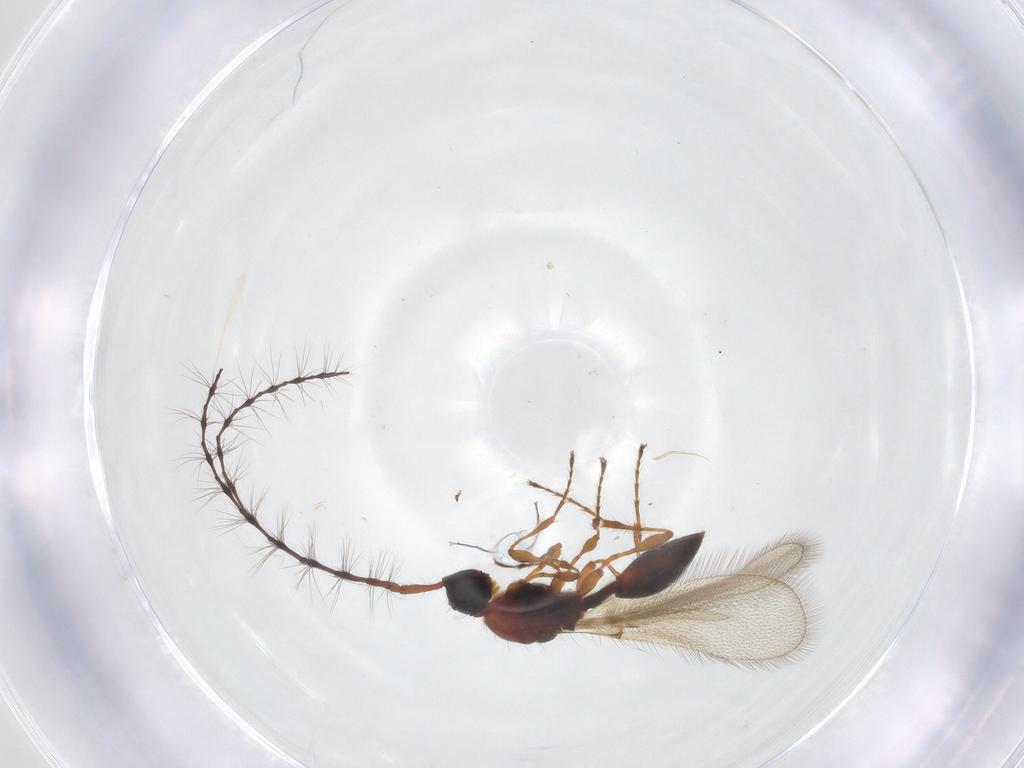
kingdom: Animalia
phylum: Arthropoda
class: Insecta
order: Hymenoptera
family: Diapriidae
